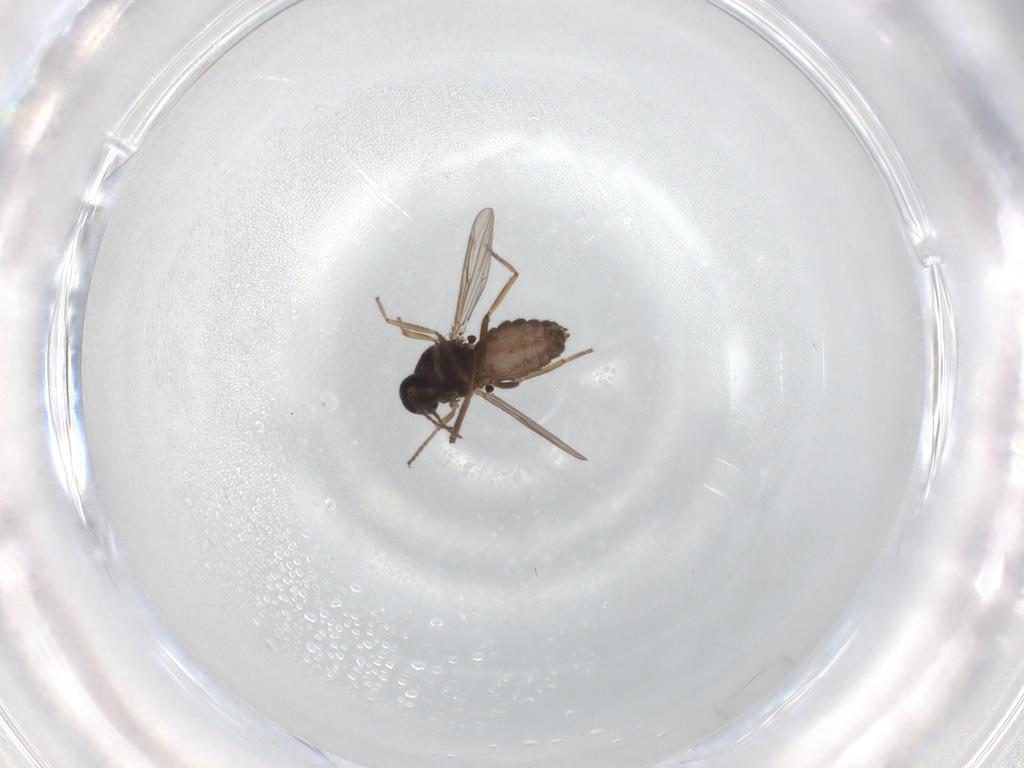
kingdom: Animalia
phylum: Arthropoda
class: Insecta
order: Diptera
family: Ceratopogonidae
